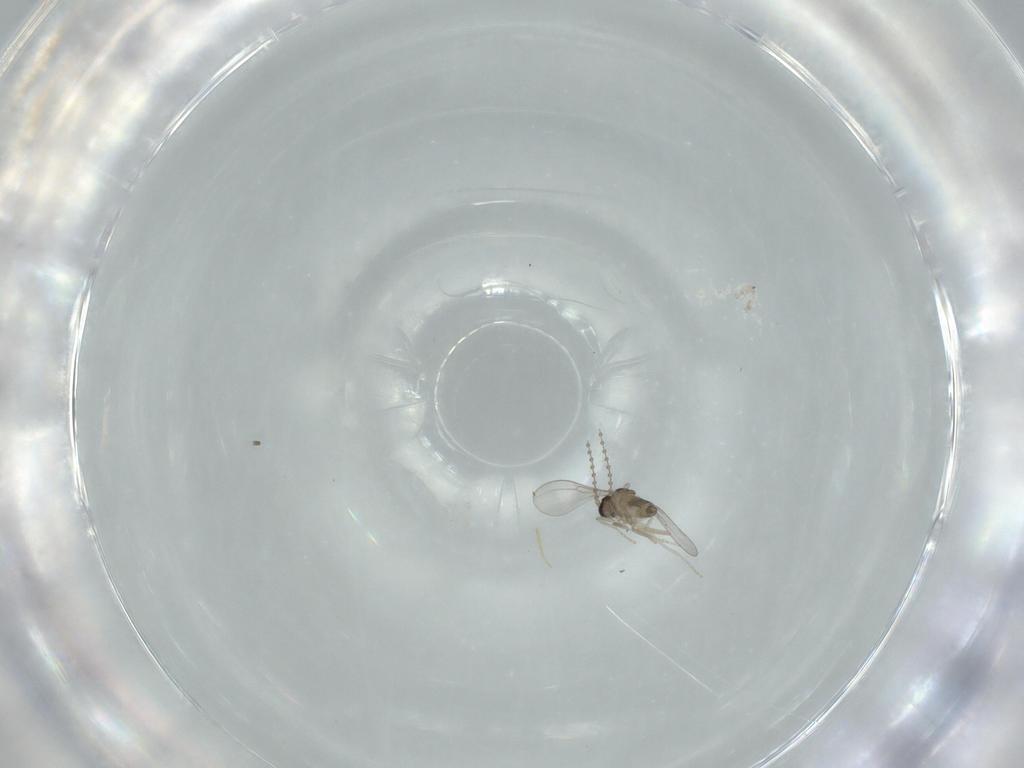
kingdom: Animalia
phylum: Arthropoda
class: Insecta
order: Diptera
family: Cecidomyiidae
